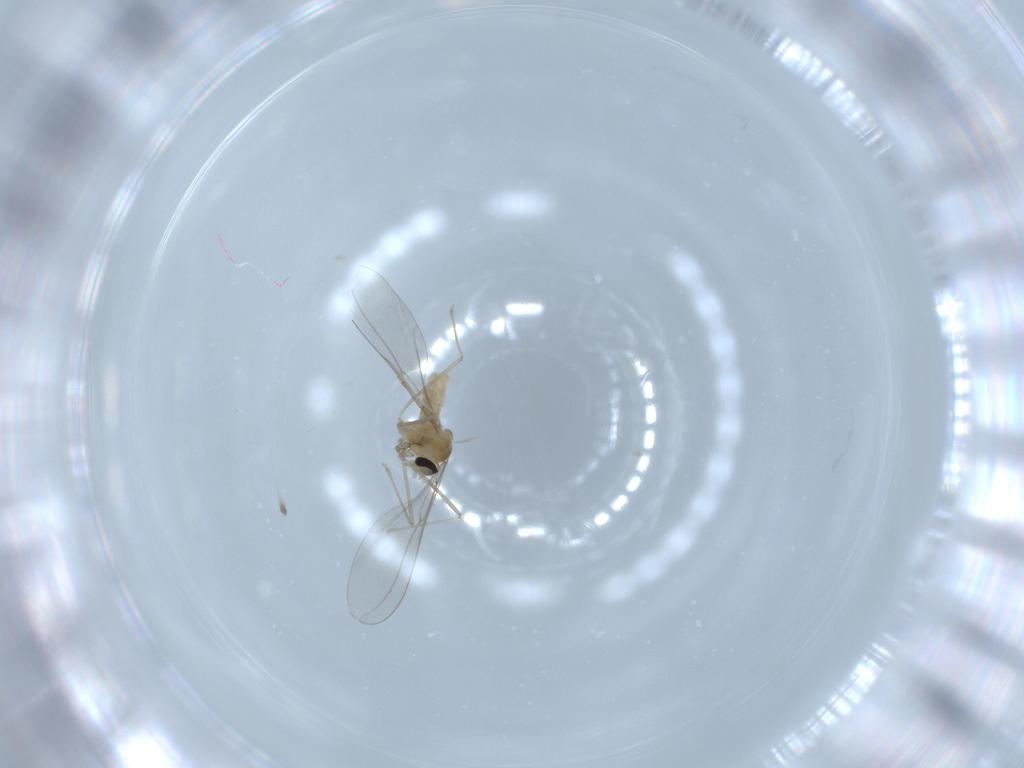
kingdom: Animalia
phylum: Arthropoda
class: Insecta
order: Diptera
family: Cecidomyiidae
